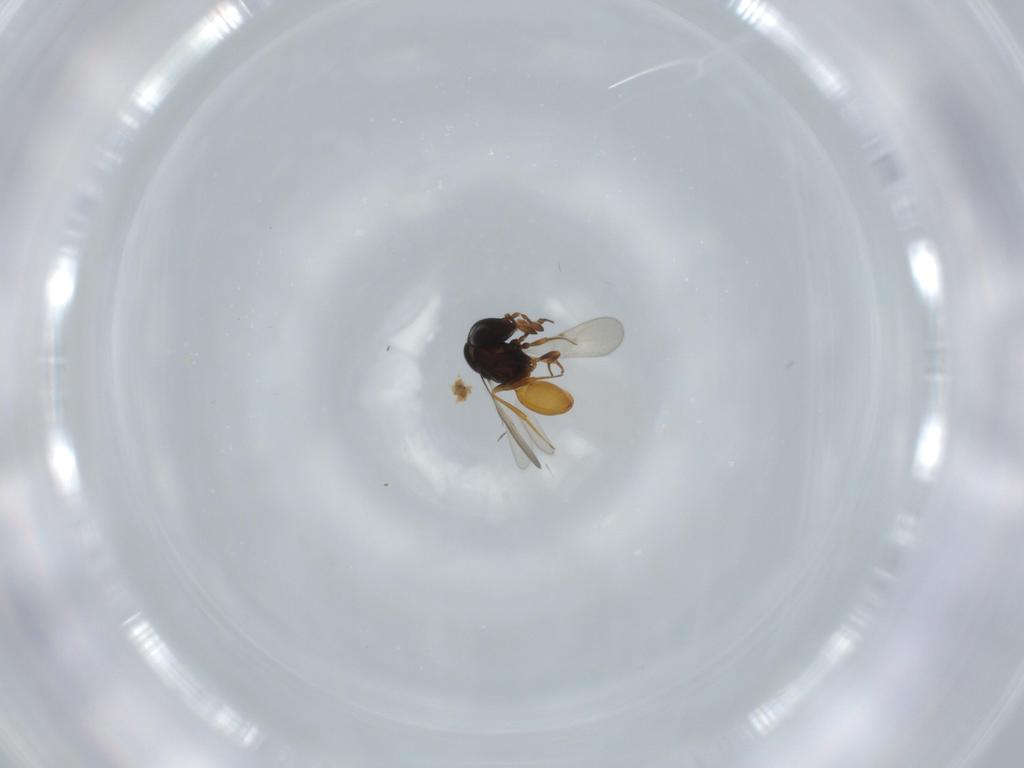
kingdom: Animalia
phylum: Arthropoda
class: Insecta
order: Hymenoptera
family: Scelionidae
